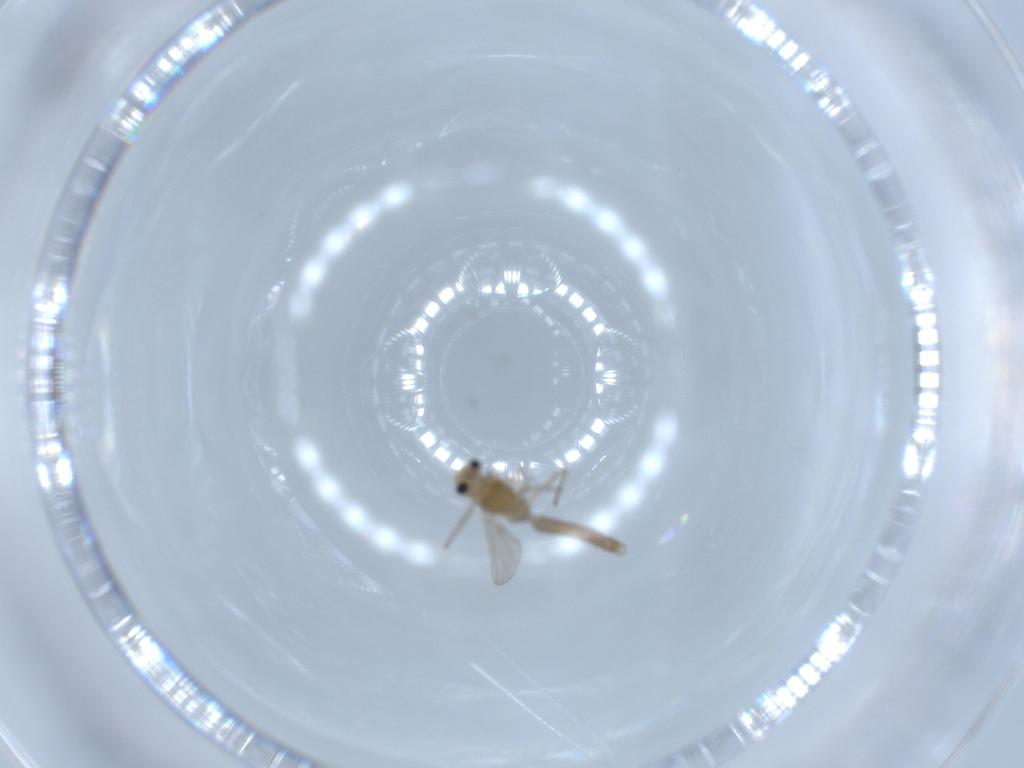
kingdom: Animalia
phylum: Arthropoda
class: Insecta
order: Diptera
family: Chironomidae
